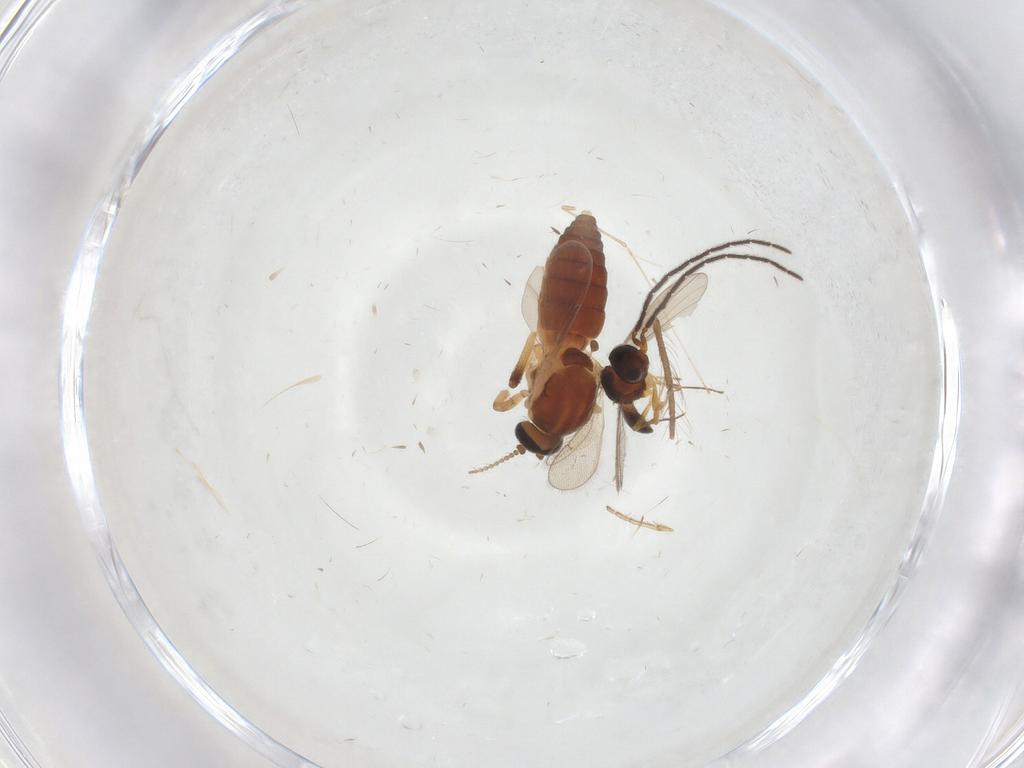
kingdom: Animalia
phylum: Arthropoda
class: Insecta
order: Diptera
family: Ceratopogonidae
